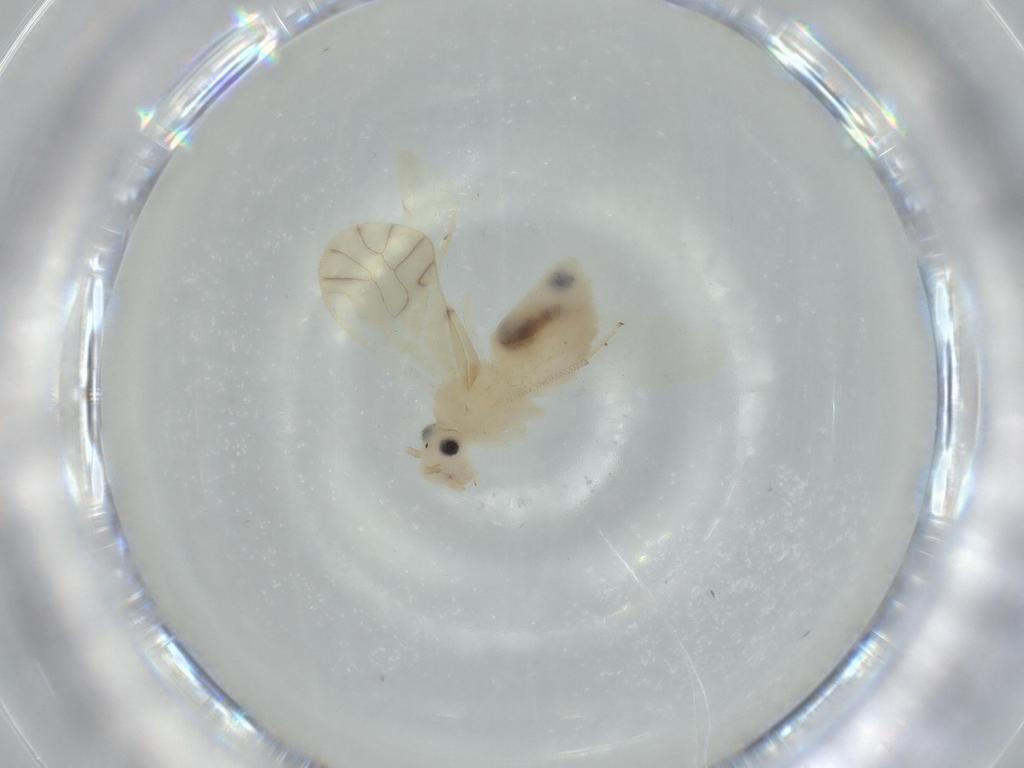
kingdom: Animalia
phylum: Arthropoda
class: Insecta
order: Psocodea
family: Caeciliusidae
